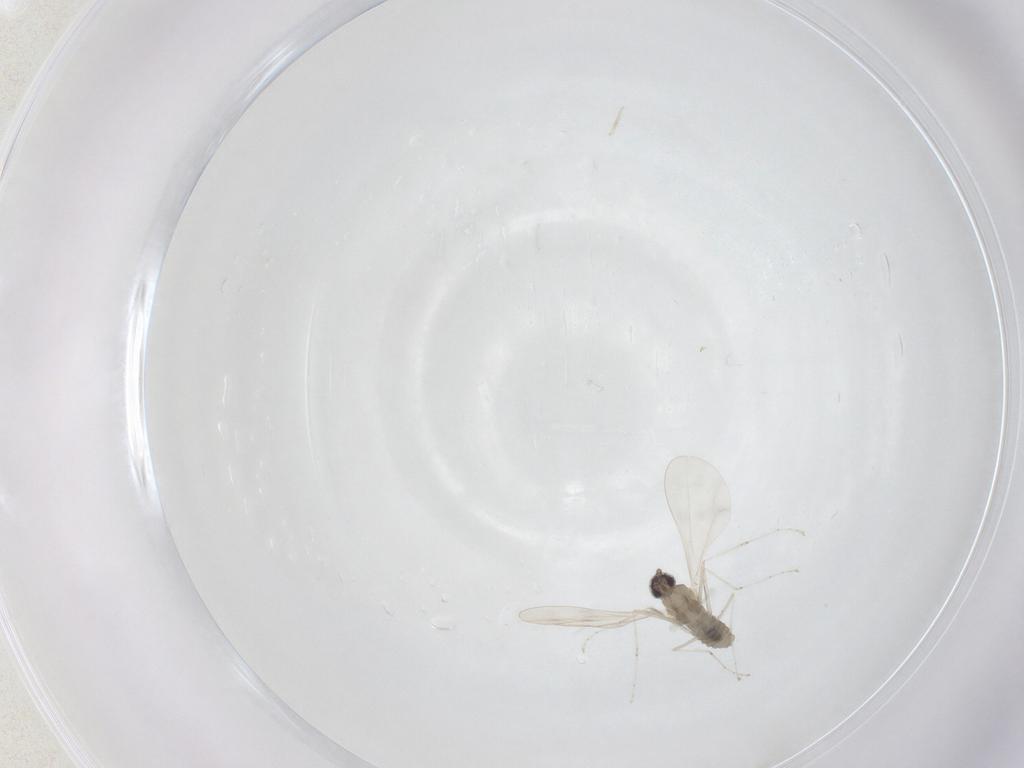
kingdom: Animalia
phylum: Arthropoda
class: Insecta
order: Diptera
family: Cecidomyiidae
